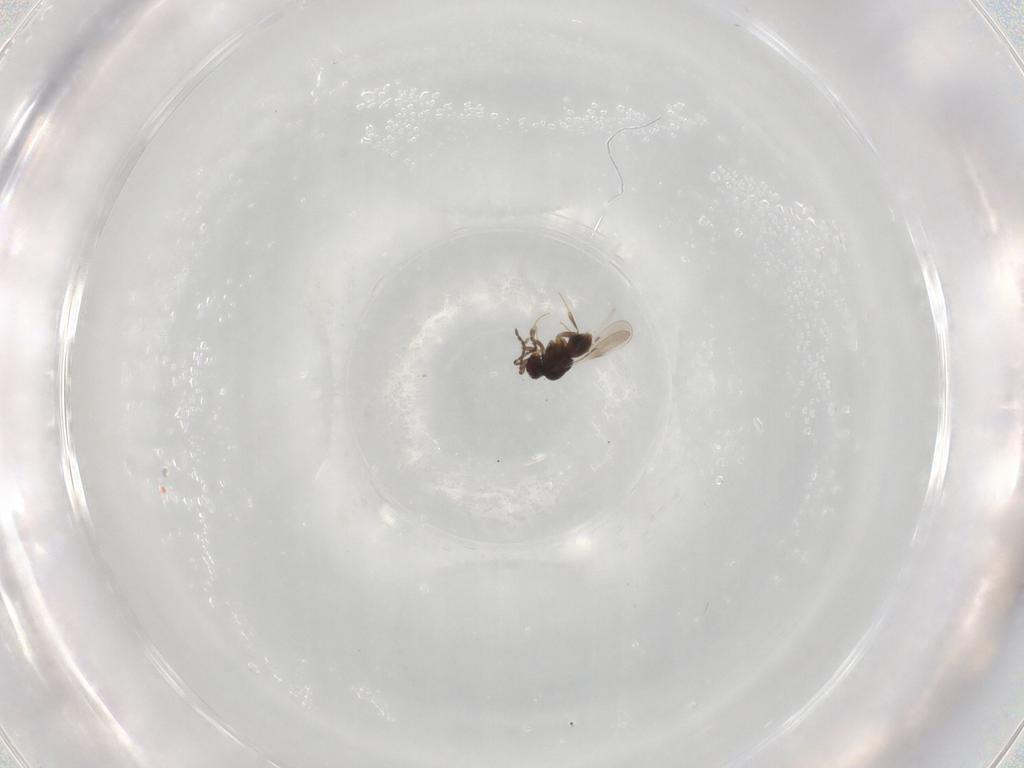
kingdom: Animalia
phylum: Arthropoda
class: Insecta
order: Hymenoptera
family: Ceraphronidae
